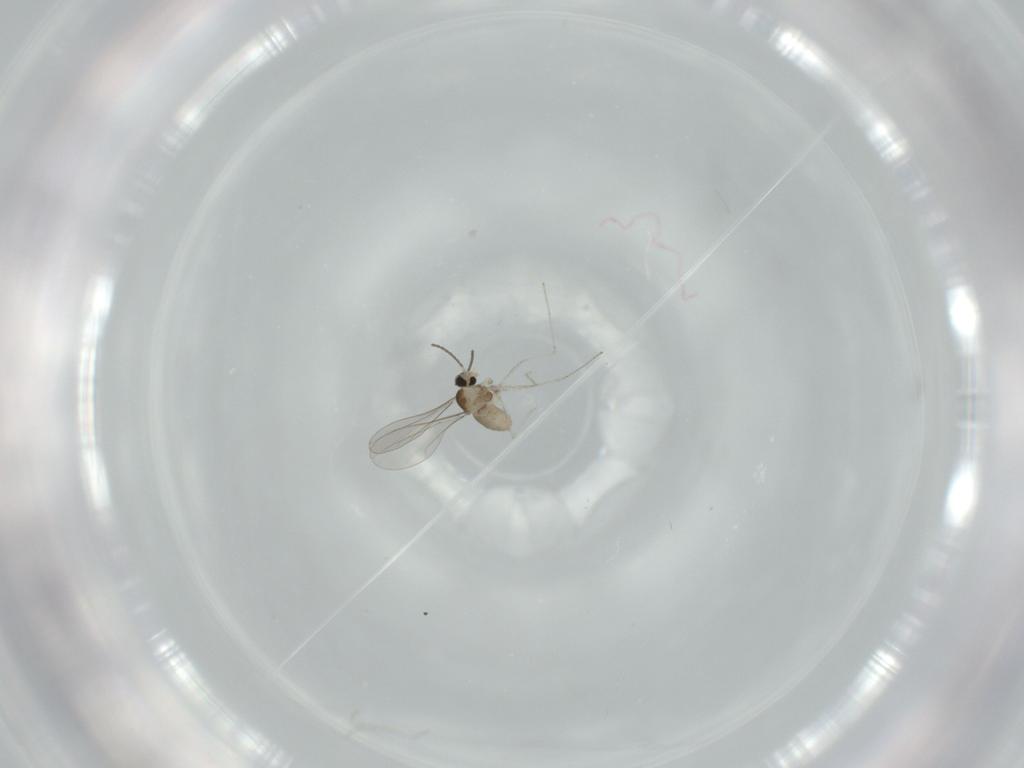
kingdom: Animalia
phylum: Arthropoda
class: Insecta
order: Diptera
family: Cecidomyiidae
